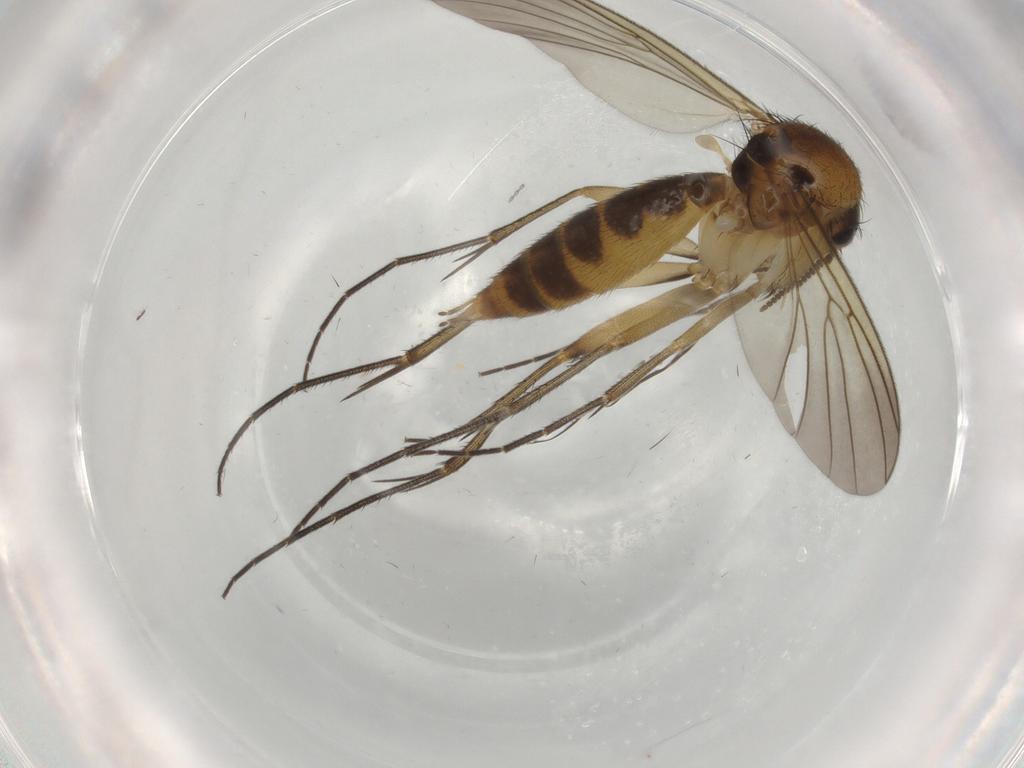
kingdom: Animalia
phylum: Arthropoda
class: Insecta
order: Diptera
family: Mycetophilidae
